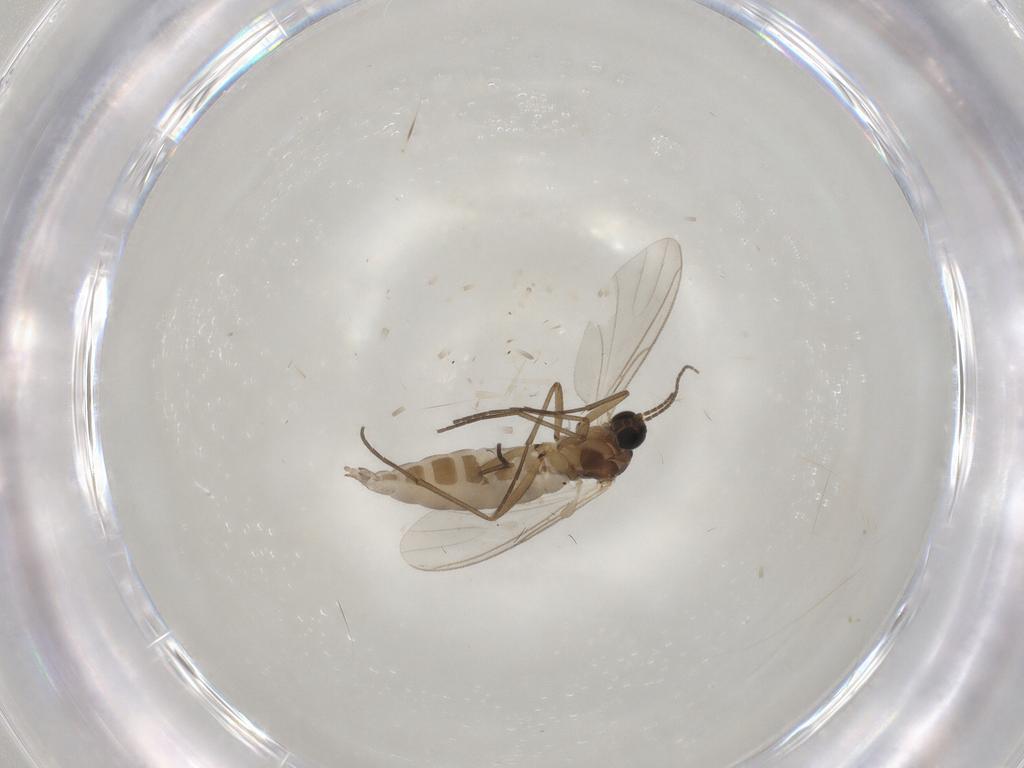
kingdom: Animalia
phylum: Arthropoda
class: Insecta
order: Diptera
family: Sciaridae
